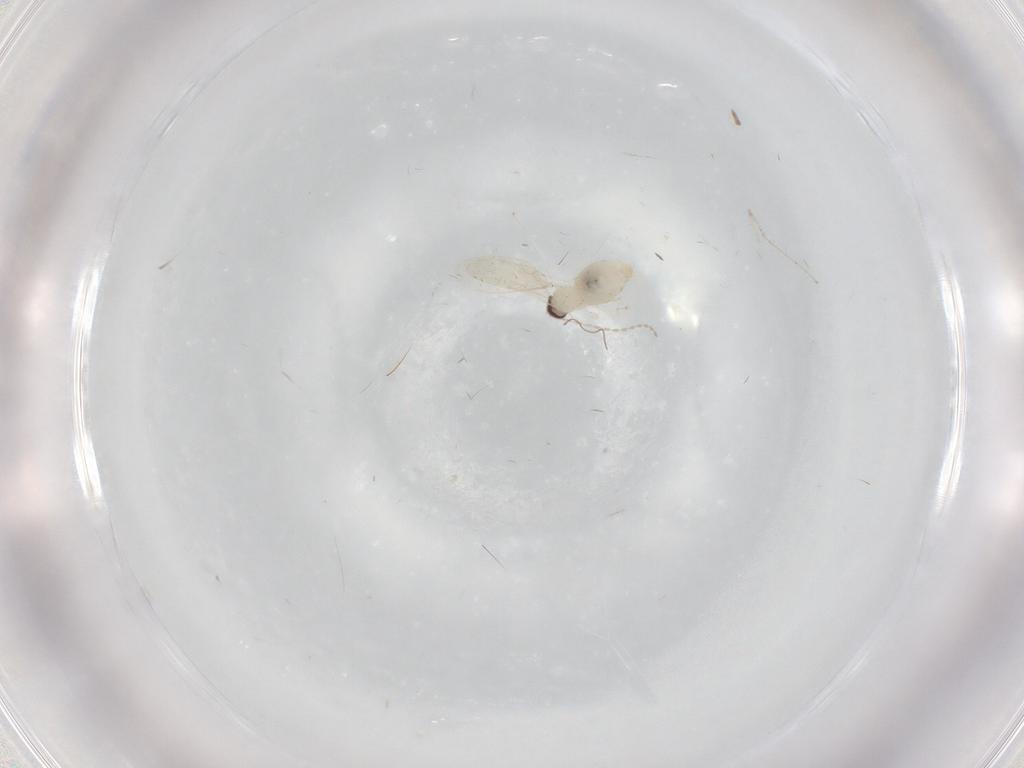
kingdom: Animalia
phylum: Arthropoda
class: Insecta
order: Diptera
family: Cecidomyiidae
